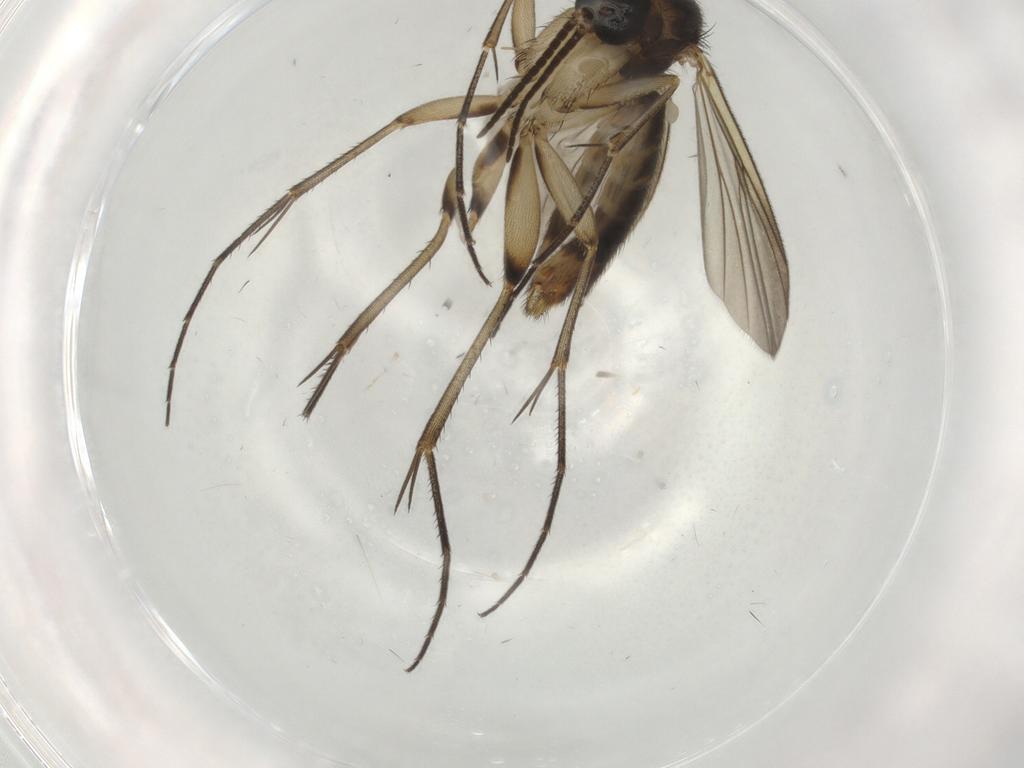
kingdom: Animalia
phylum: Arthropoda
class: Insecta
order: Diptera
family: Mycetophilidae
